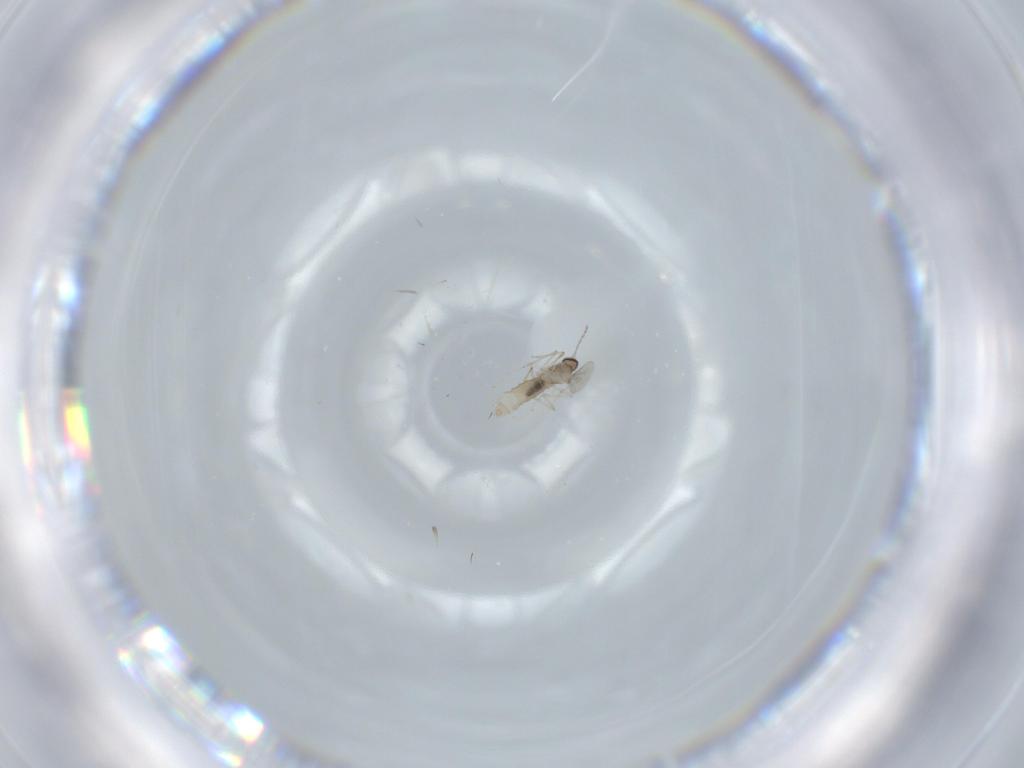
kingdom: Animalia
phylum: Arthropoda
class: Insecta
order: Diptera
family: Cecidomyiidae
